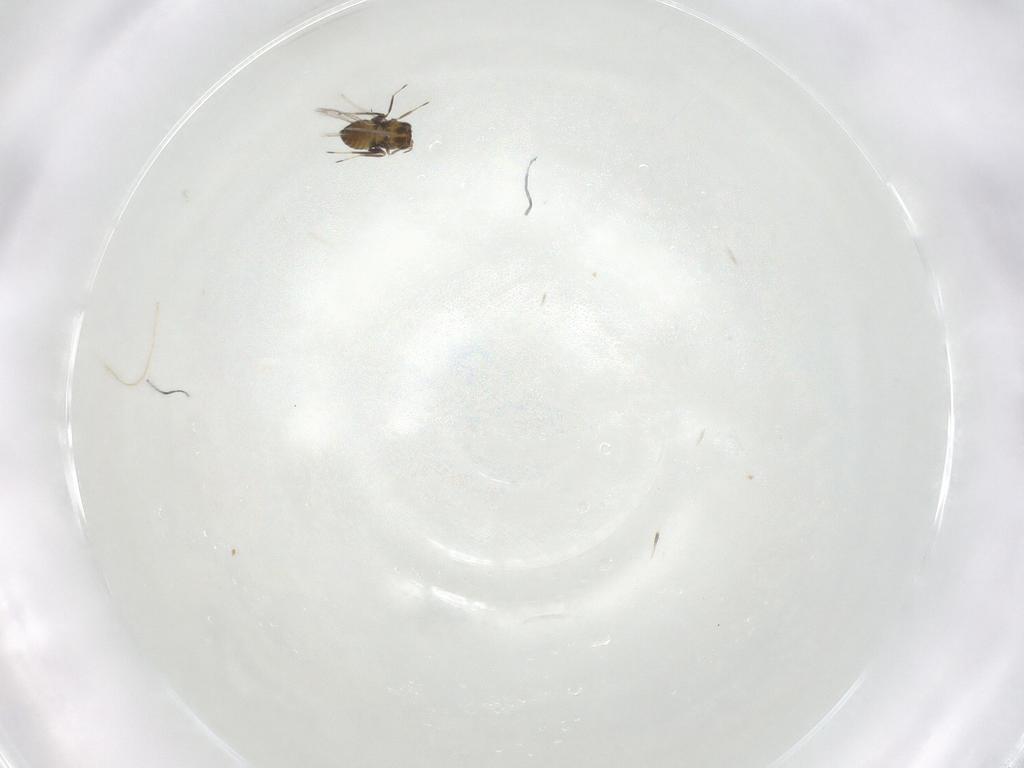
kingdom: Animalia
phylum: Arthropoda
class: Insecta
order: Hymenoptera
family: Trichogrammatidae
